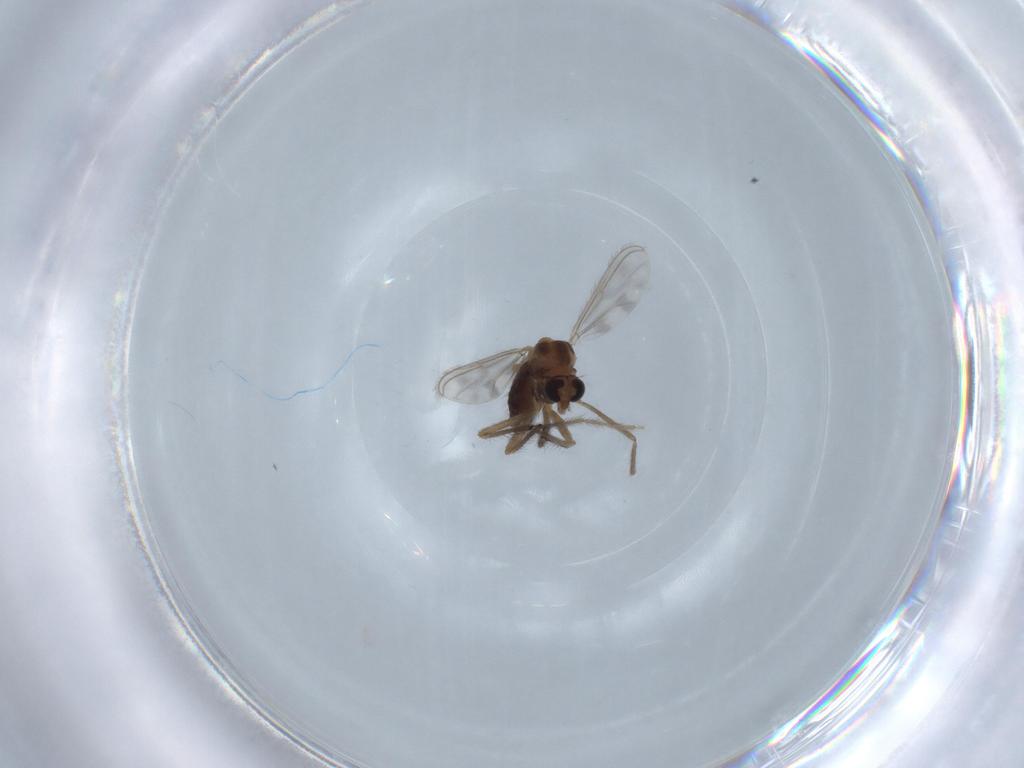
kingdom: Animalia
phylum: Arthropoda
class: Insecta
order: Diptera
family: Chironomidae
